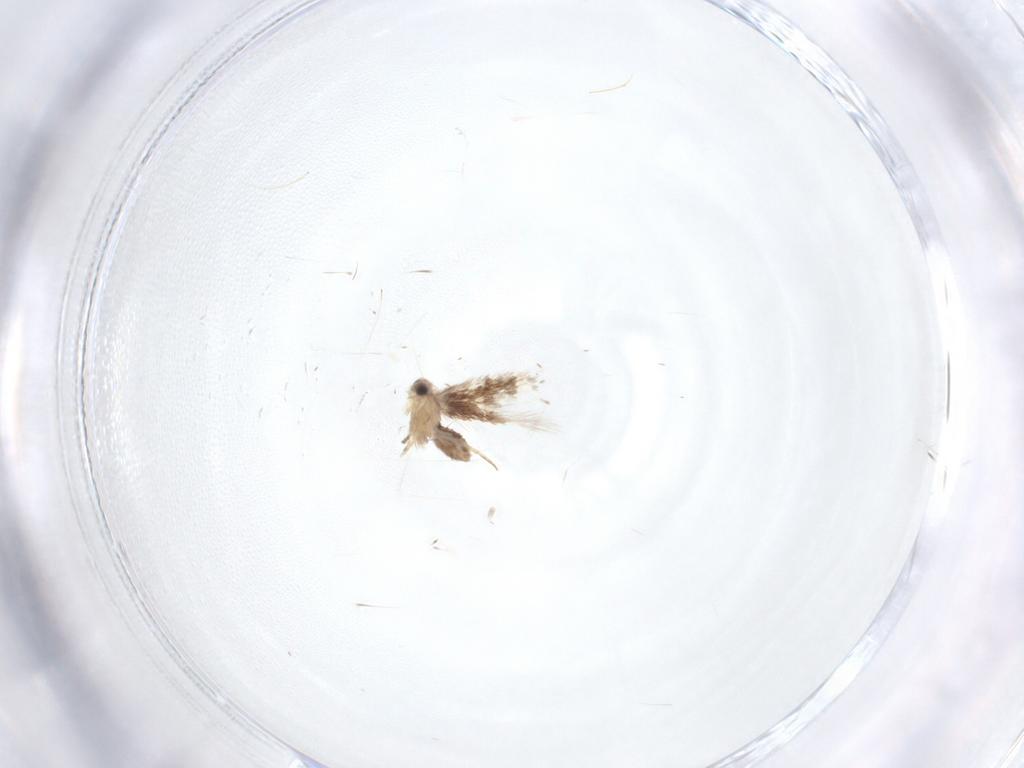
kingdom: Animalia
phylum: Arthropoda
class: Insecta
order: Lepidoptera
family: Nepticulidae
